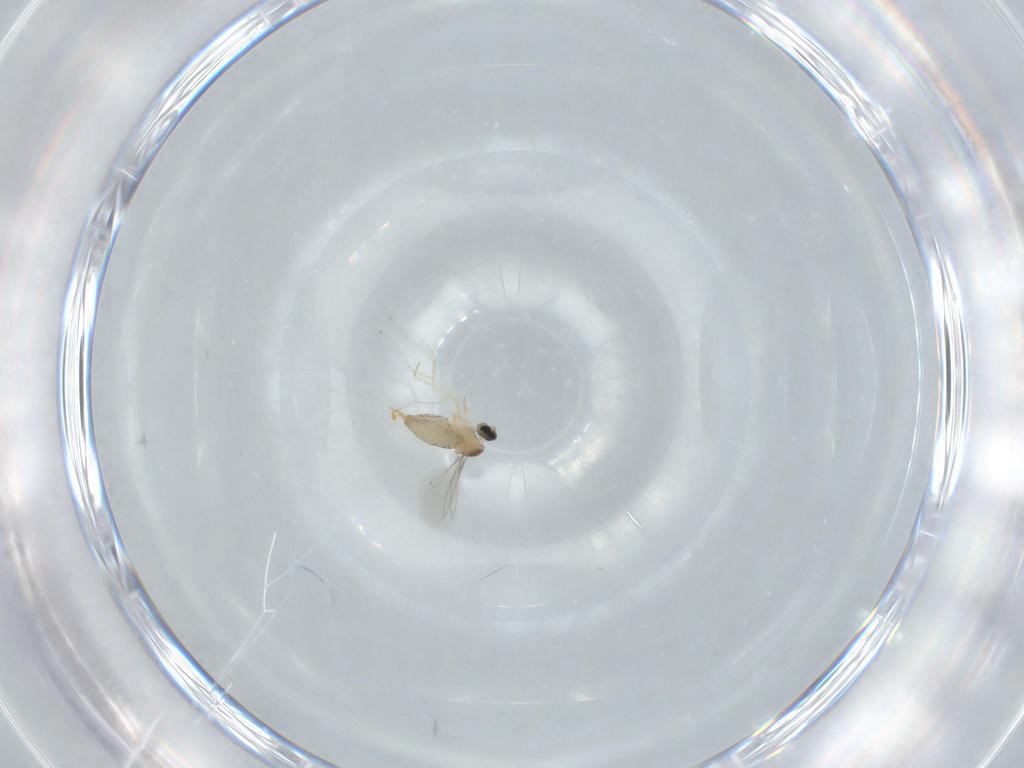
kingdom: Animalia
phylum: Arthropoda
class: Insecta
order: Diptera
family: Cecidomyiidae
